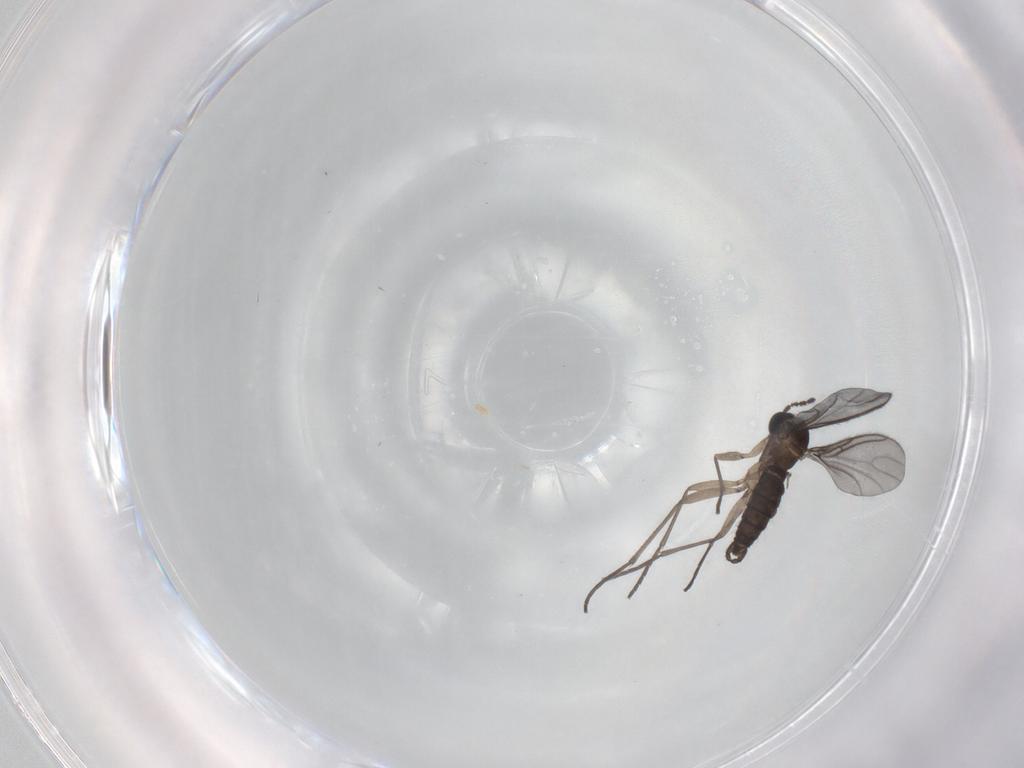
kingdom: Animalia
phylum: Arthropoda
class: Insecta
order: Diptera
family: Sciaridae
